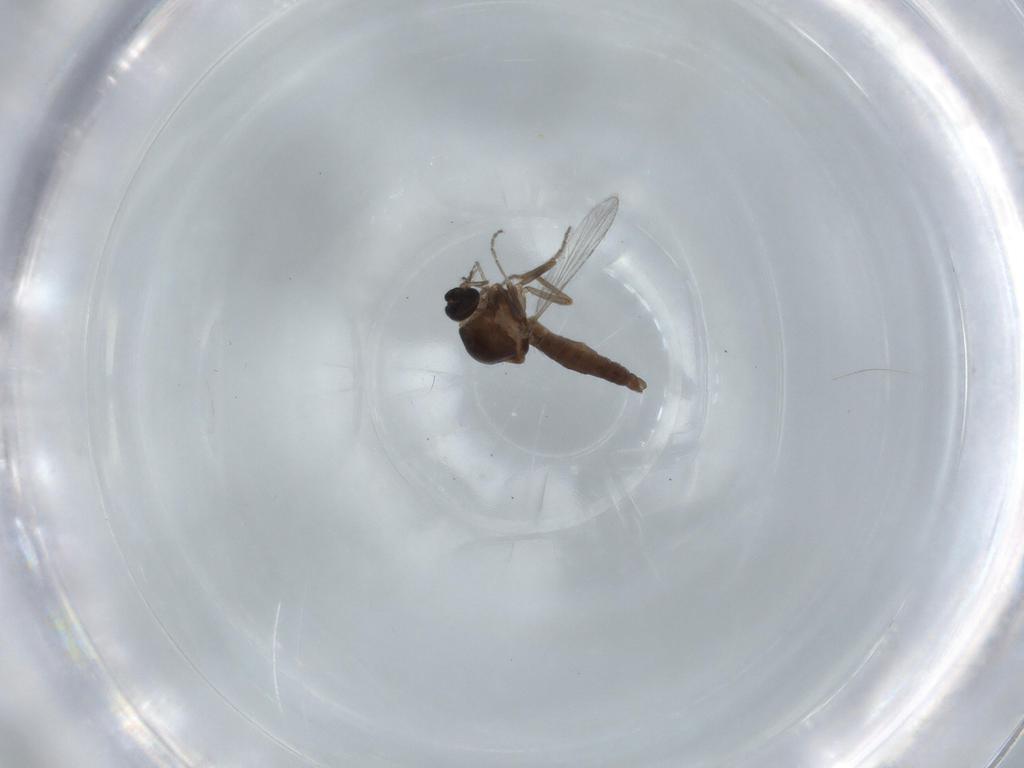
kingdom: Animalia
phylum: Arthropoda
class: Insecta
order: Diptera
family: Ceratopogonidae
